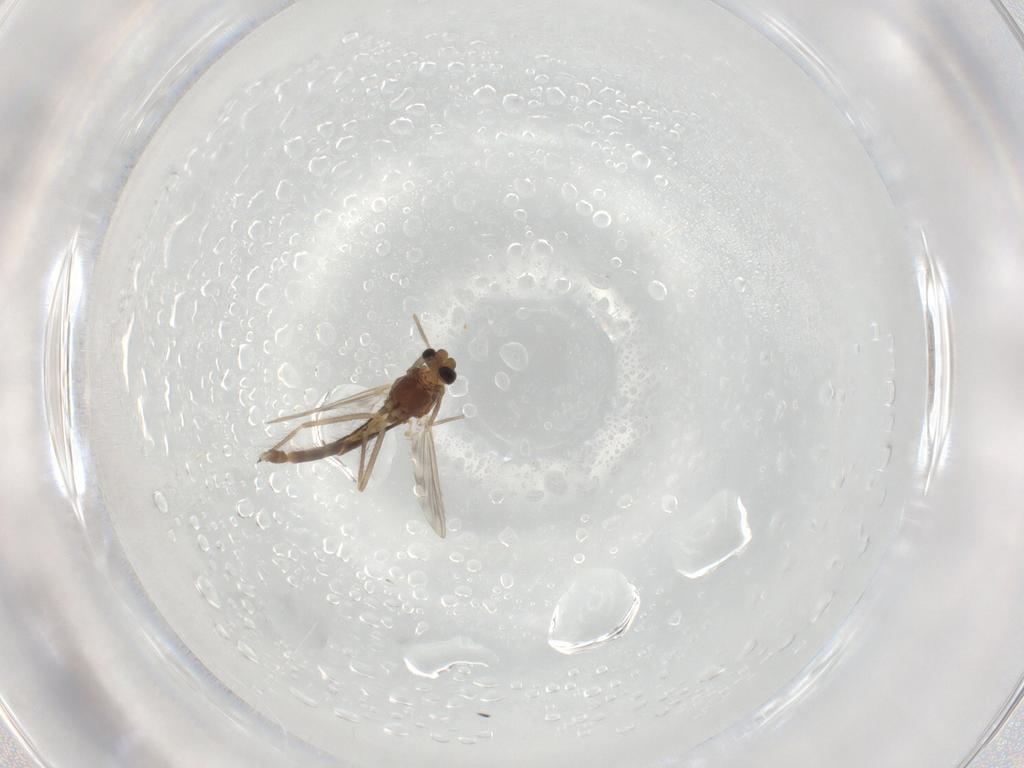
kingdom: Animalia
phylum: Arthropoda
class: Insecta
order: Diptera
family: Chironomidae
